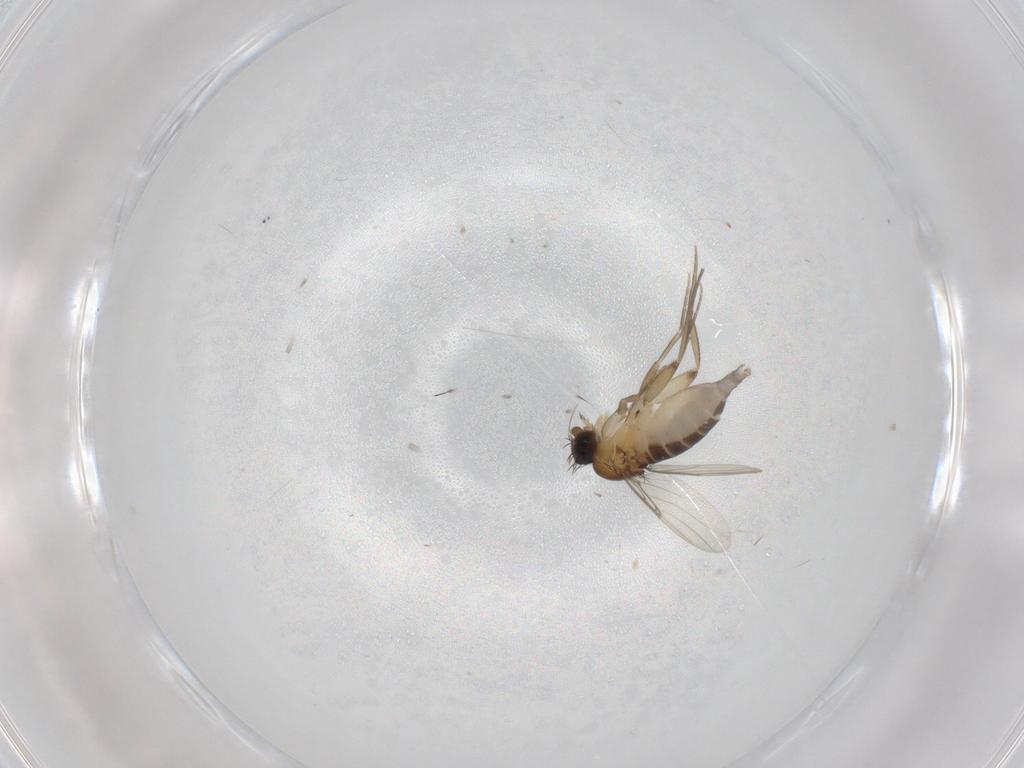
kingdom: Animalia
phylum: Arthropoda
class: Insecta
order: Diptera
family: Phoridae
